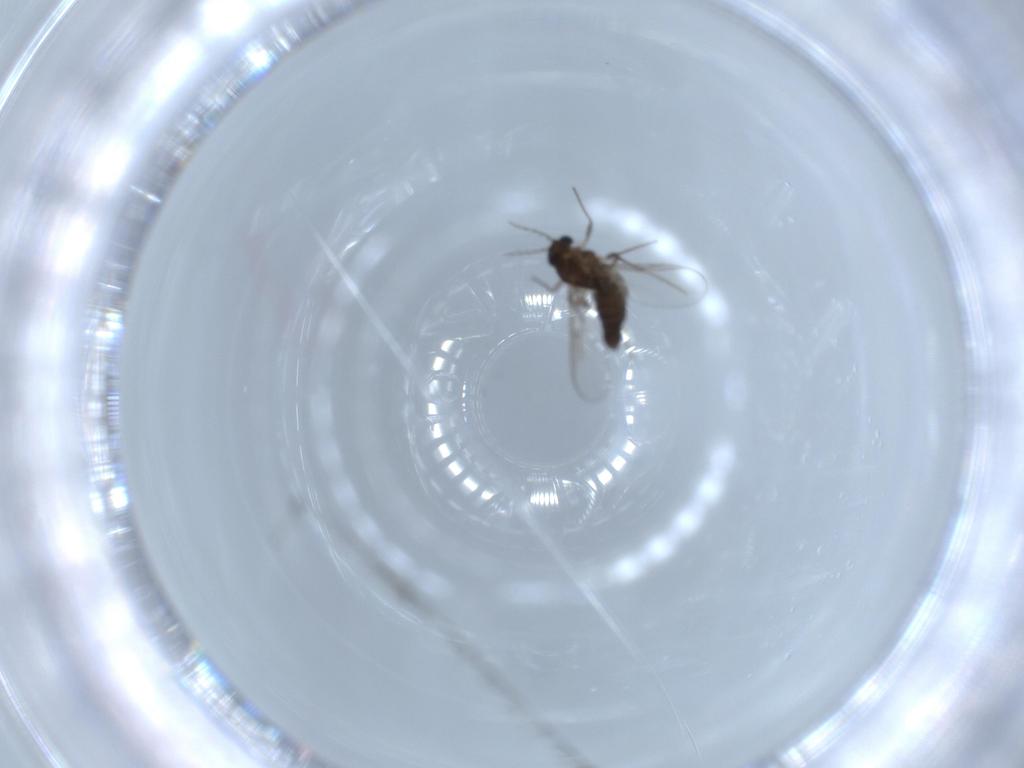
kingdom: Animalia
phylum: Arthropoda
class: Insecta
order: Diptera
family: Chironomidae
